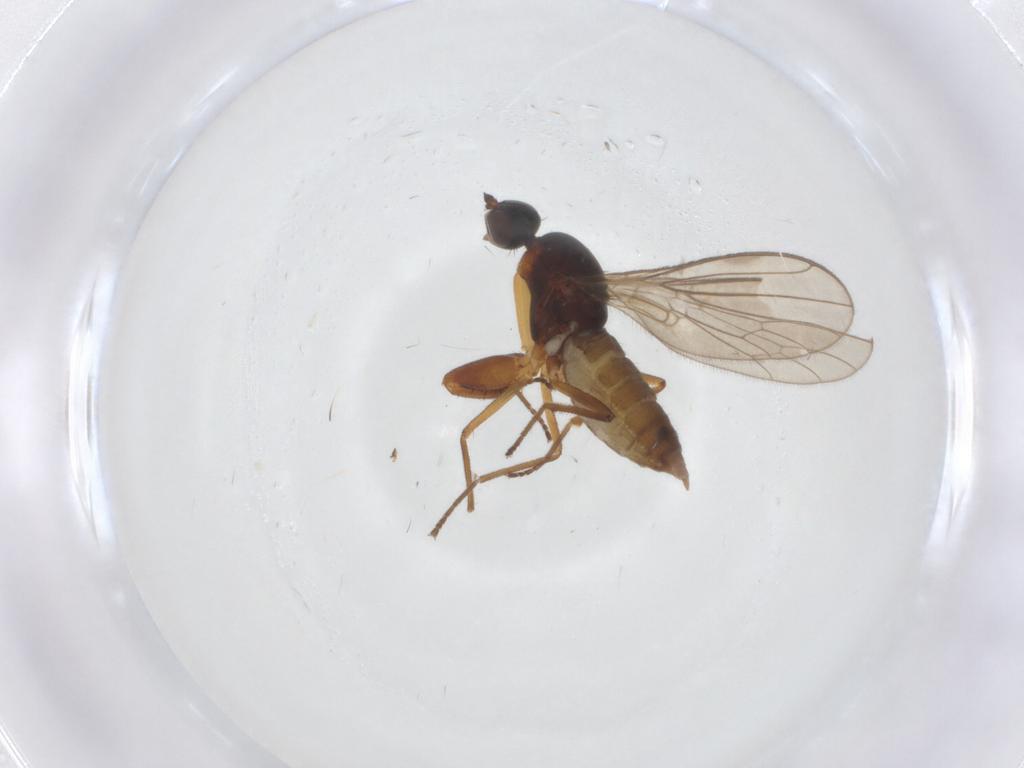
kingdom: Animalia
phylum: Arthropoda
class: Insecta
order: Diptera
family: Empididae
